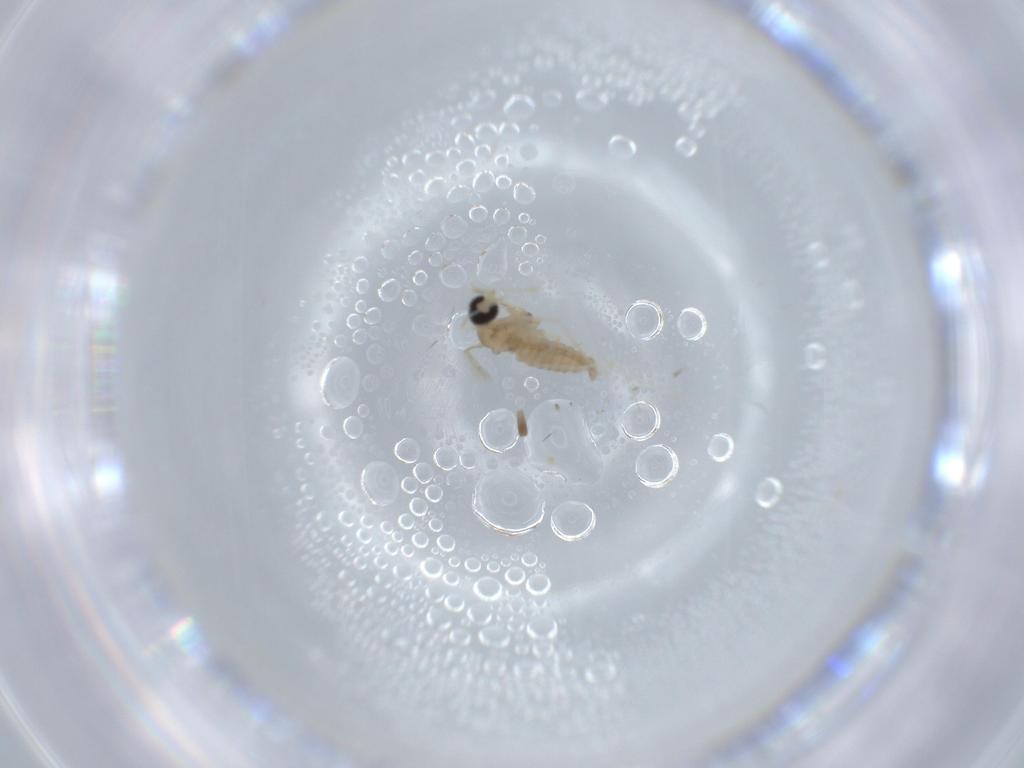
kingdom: Animalia
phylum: Arthropoda
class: Insecta
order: Diptera
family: Cecidomyiidae
